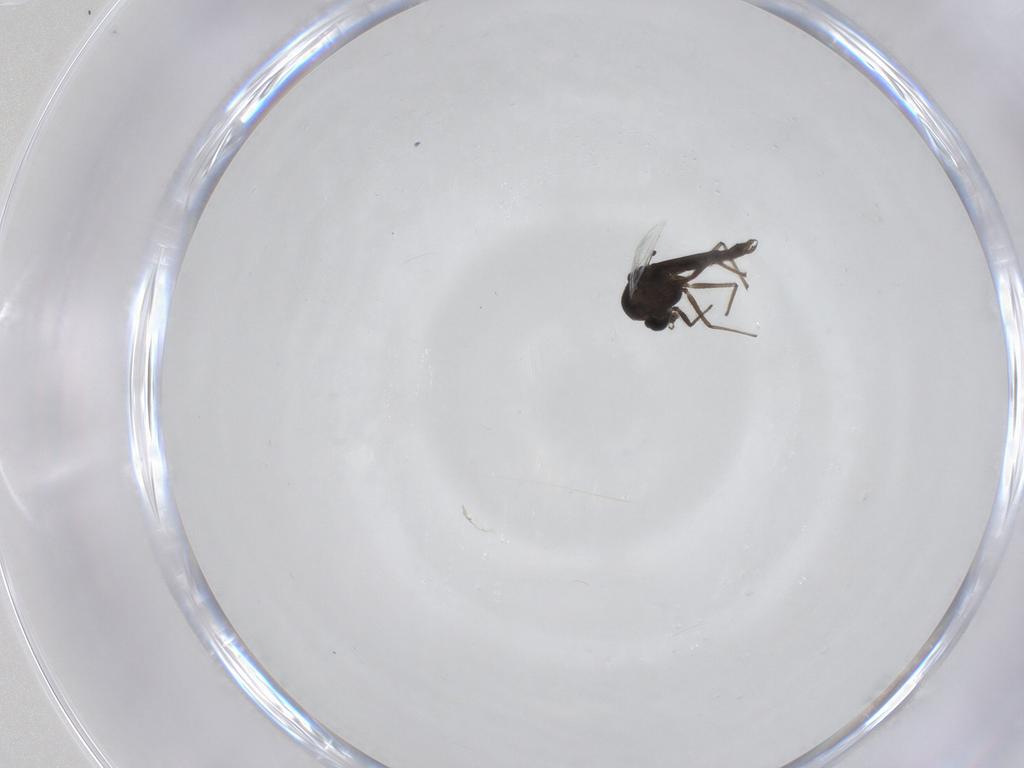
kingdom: Animalia
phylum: Arthropoda
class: Insecta
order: Diptera
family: Chironomidae
